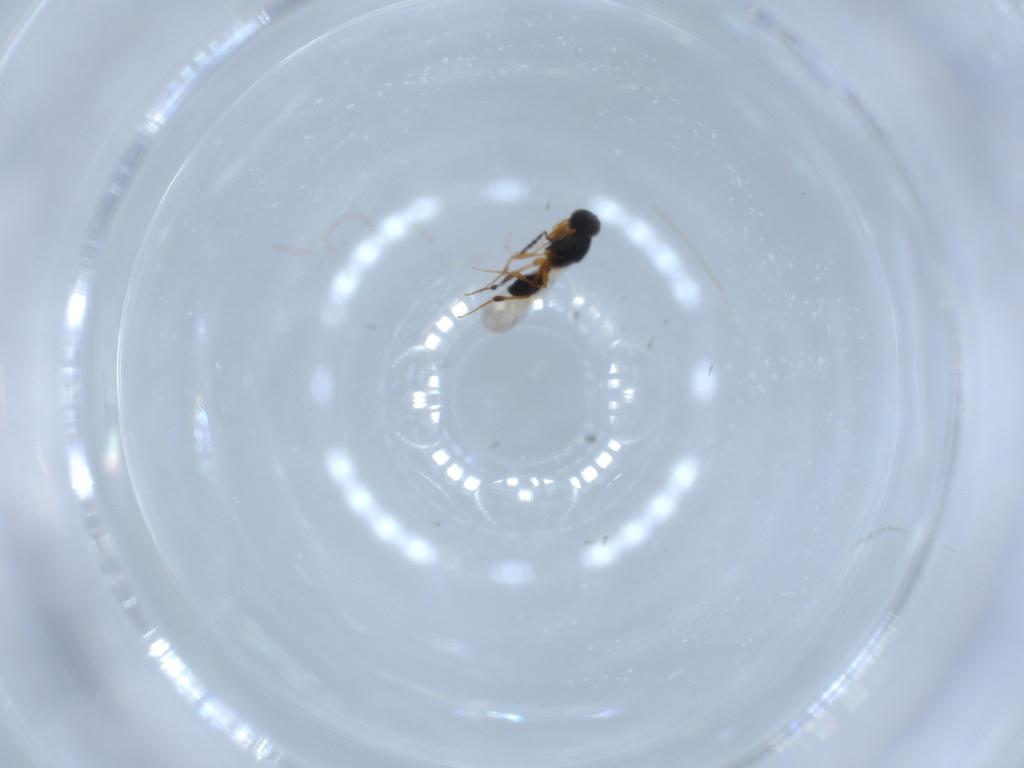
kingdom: Animalia
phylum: Arthropoda
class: Insecta
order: Hymenoptera
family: Platygastridae
